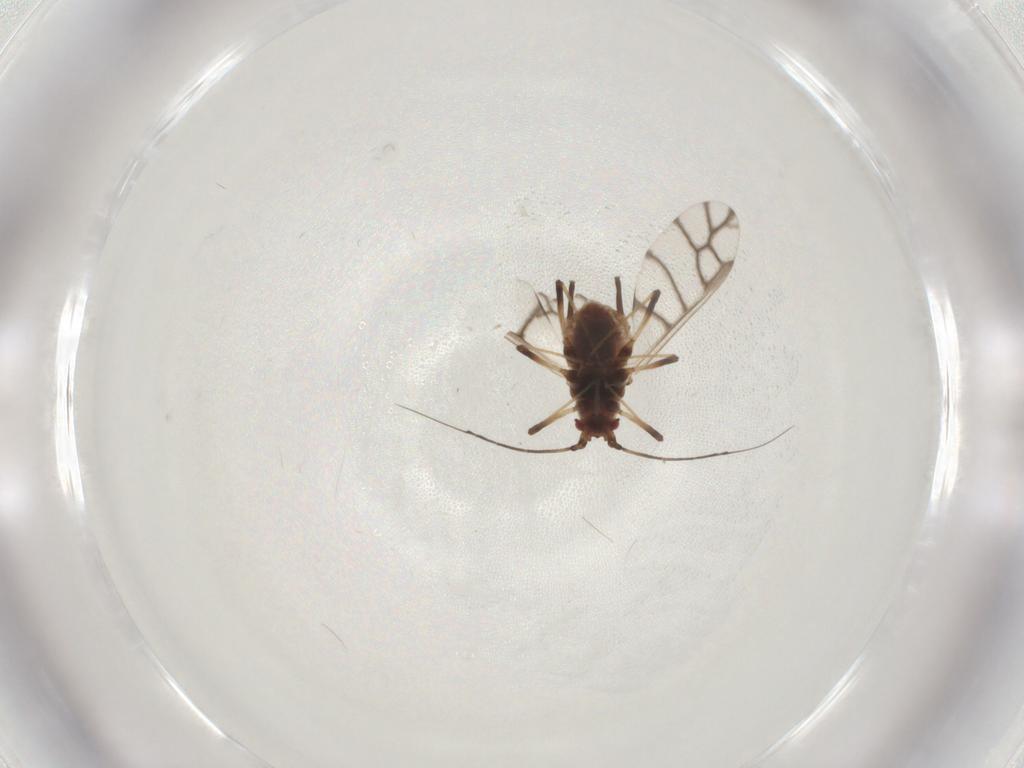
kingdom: Animalia
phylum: Arthropoda
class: Insecta
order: Hemiptera
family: Aphididae
